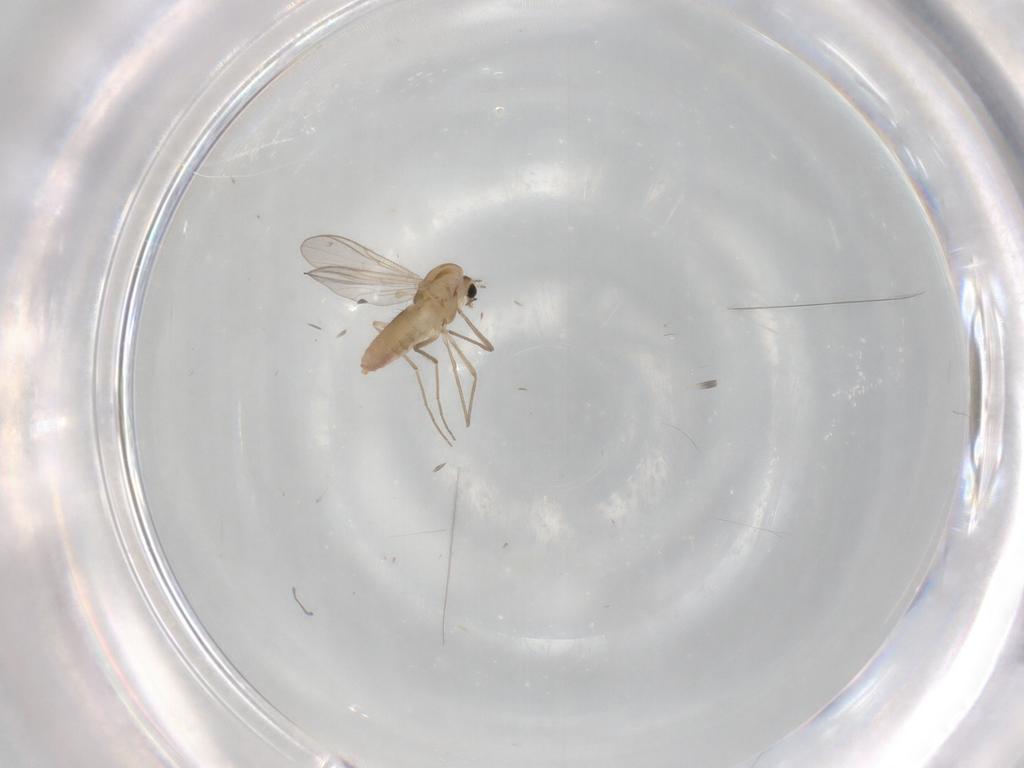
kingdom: Animalia
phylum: Arthropoda
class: Insecta
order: Diptera
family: Chironomidae
